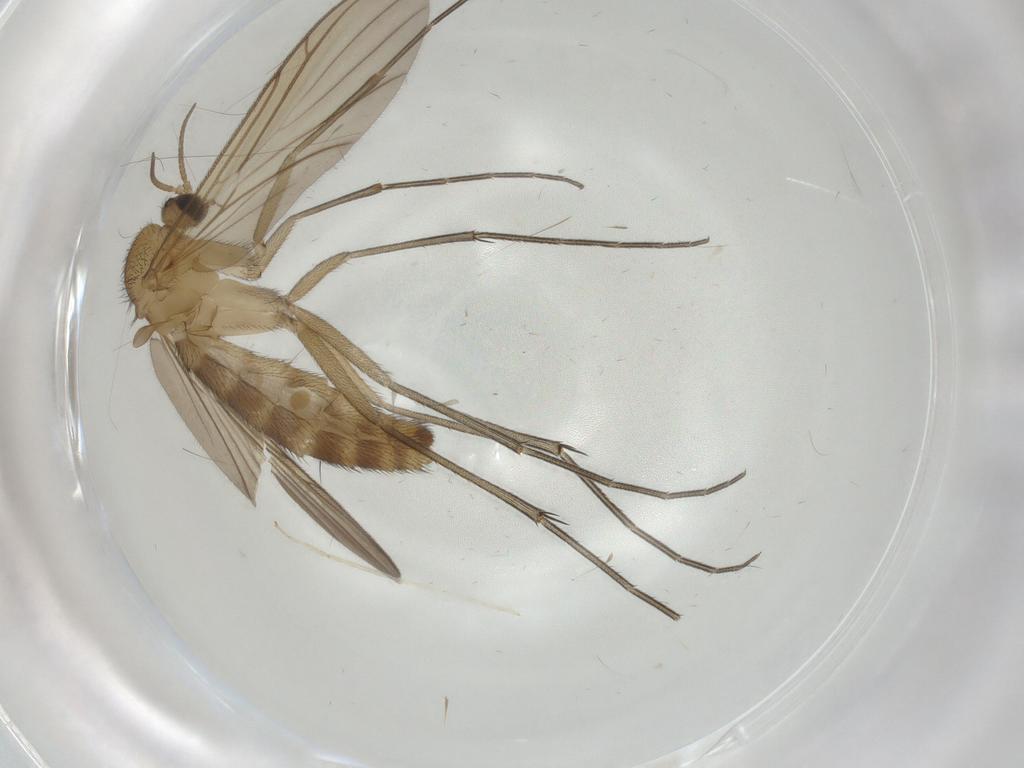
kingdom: Animalia
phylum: Arthropoda
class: Insecta
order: Diptera
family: Keroplatidae
